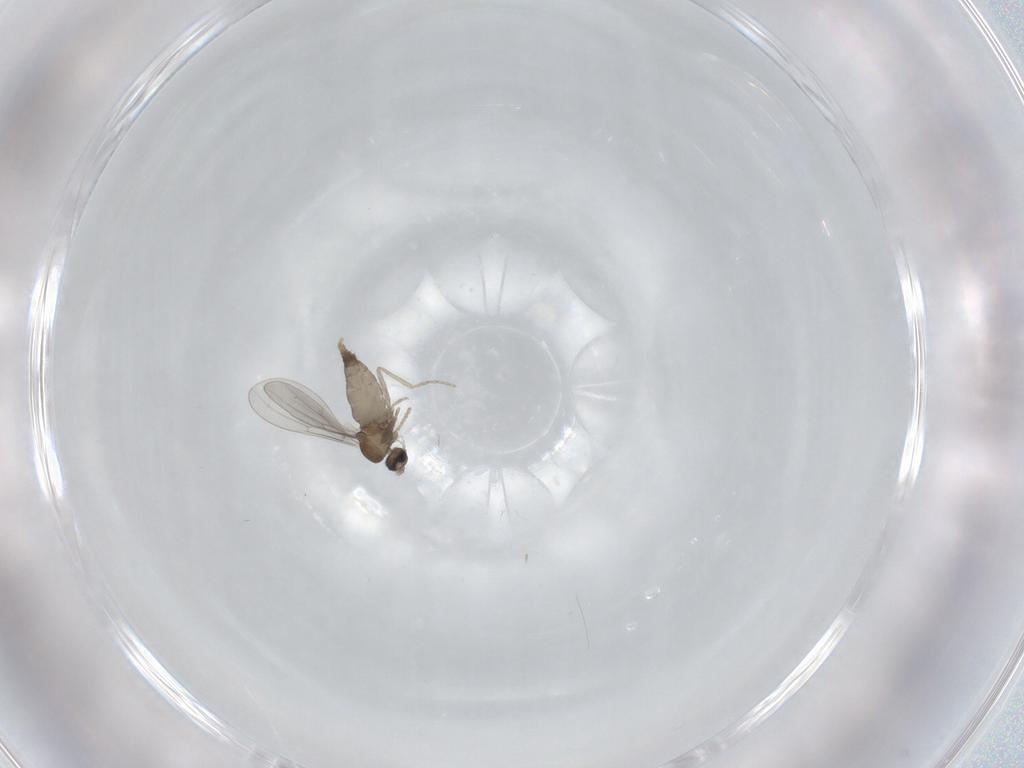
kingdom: Animalia
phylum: Arthropoda
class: Insecta
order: Diptera
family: Cecidomyiidae
